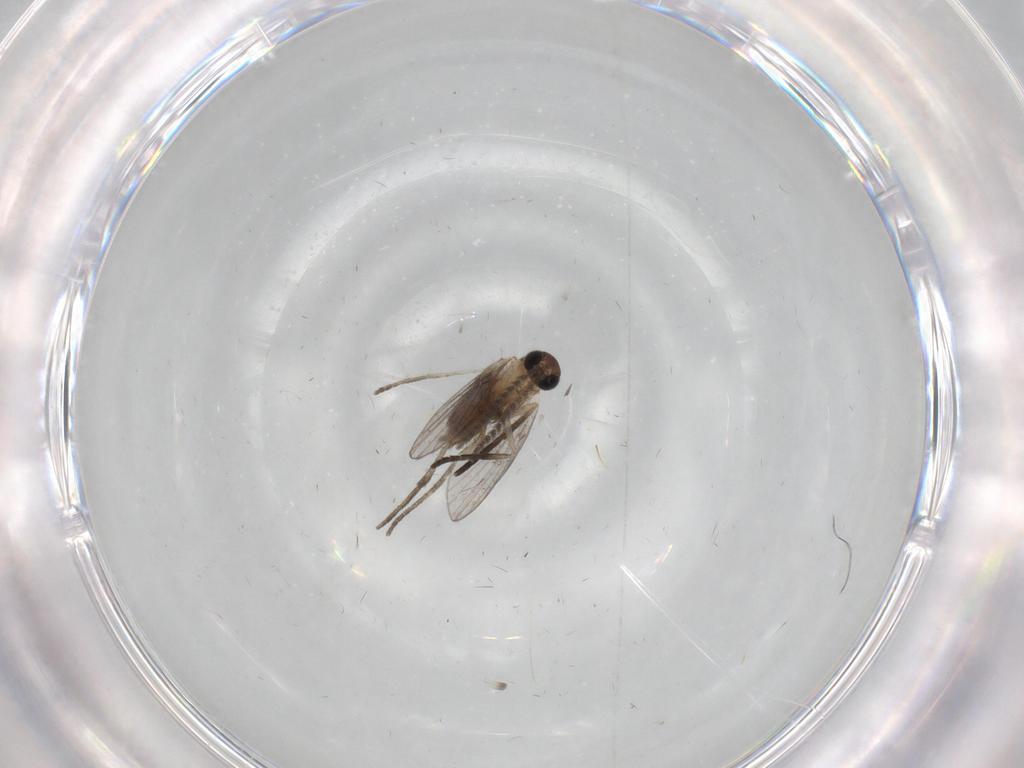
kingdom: Animalia
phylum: Arthropoda
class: Insecta
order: Diptera
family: Psychodidae
